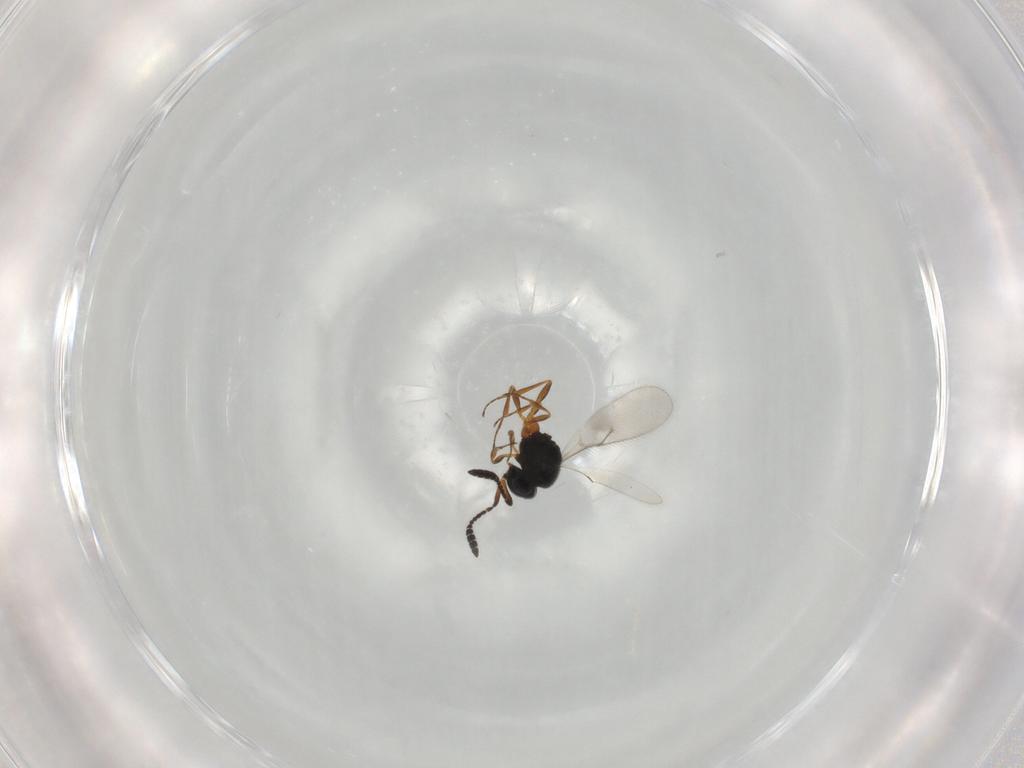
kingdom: Animalia
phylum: Arthropoda
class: Insecta
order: Hymenoptera
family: Scelionidae
